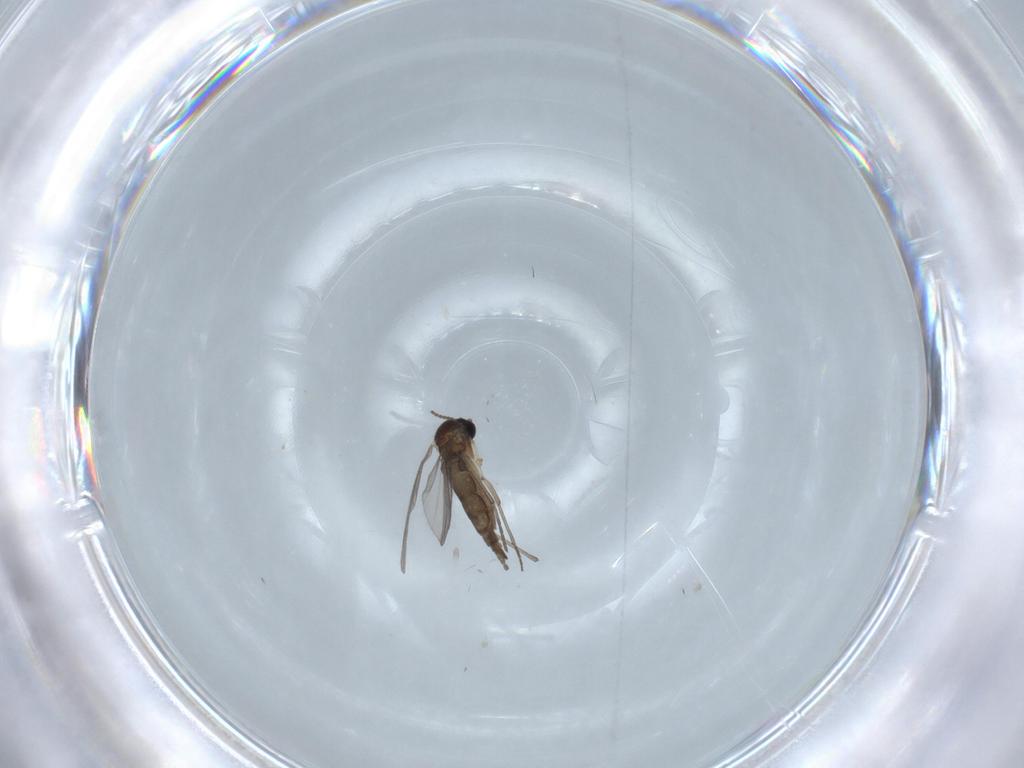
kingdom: Animalia
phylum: Arthropoda
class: Insecta
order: Diptera
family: Sciaridae
